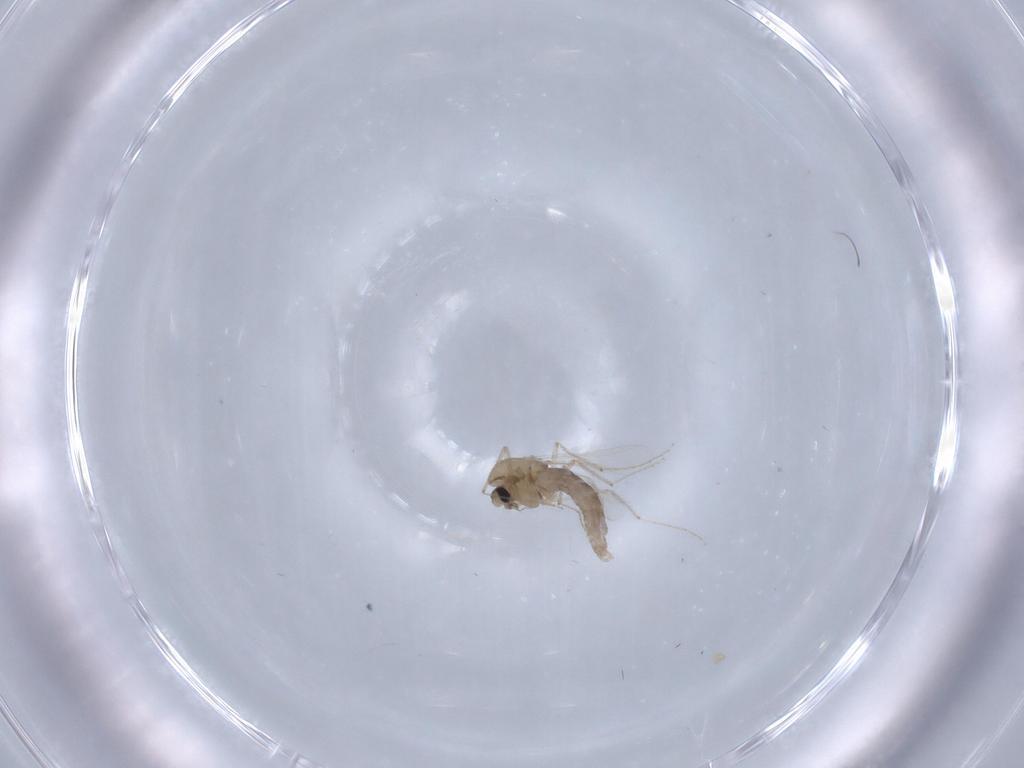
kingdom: Animalia
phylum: Arthropoda
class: Insecta
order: Diptera
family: Chironomidae
